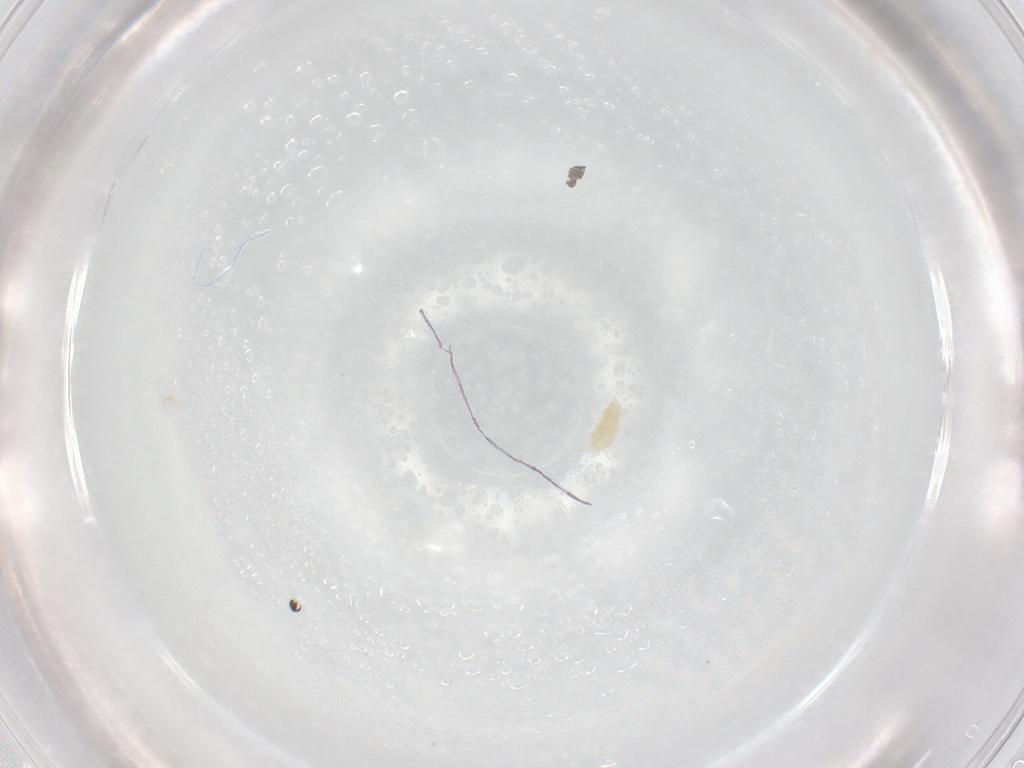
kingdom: Animalia
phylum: Arthropoda
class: Arachnida
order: Trombidiformes
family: Eupodidae
